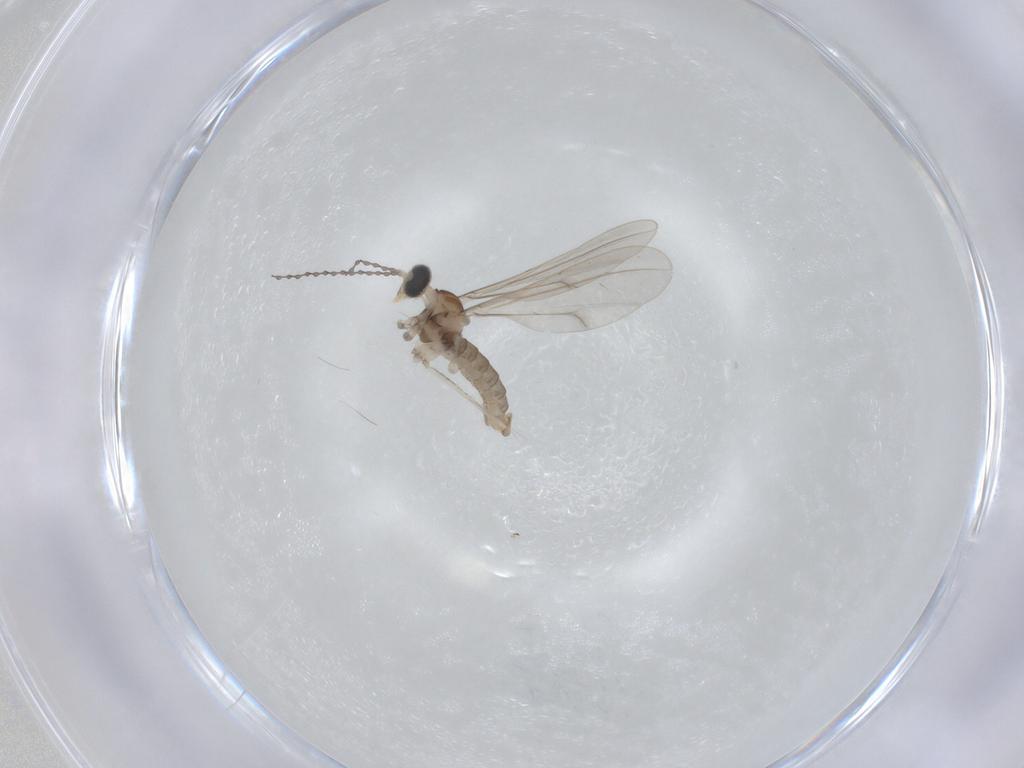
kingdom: Animalia
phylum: Arthropoda
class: Insecta
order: Diptera
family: Cecidomyiidae
